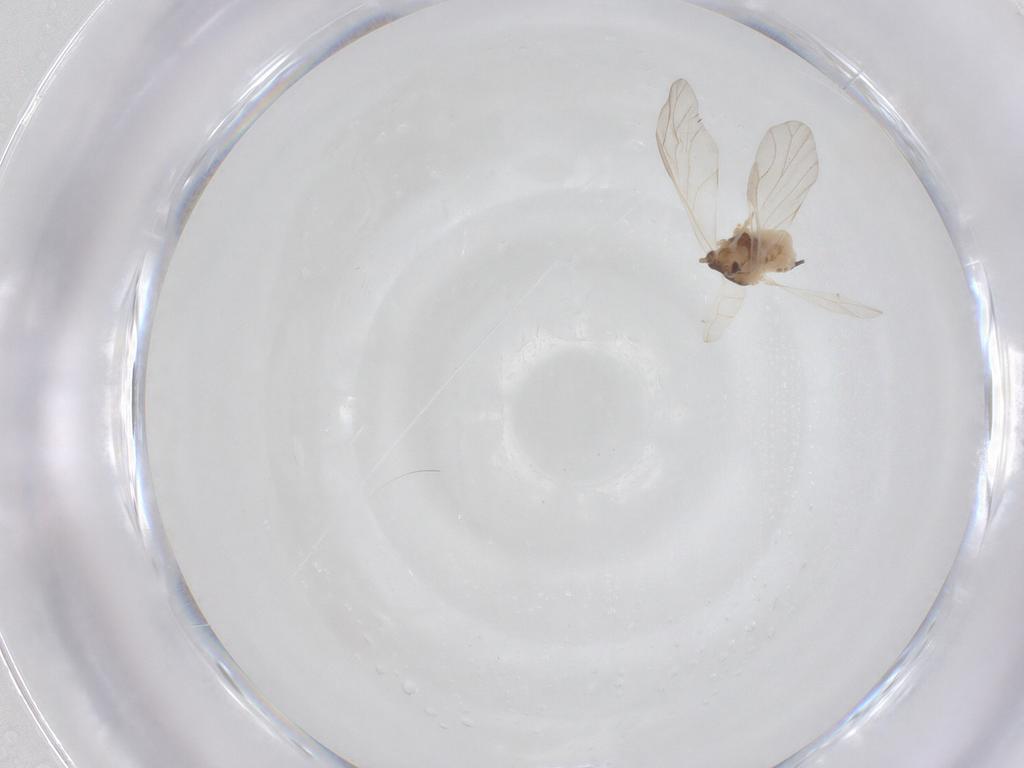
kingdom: Animalia
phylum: Arthropoda
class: Insecta
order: Hemiptera
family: Aphididae
